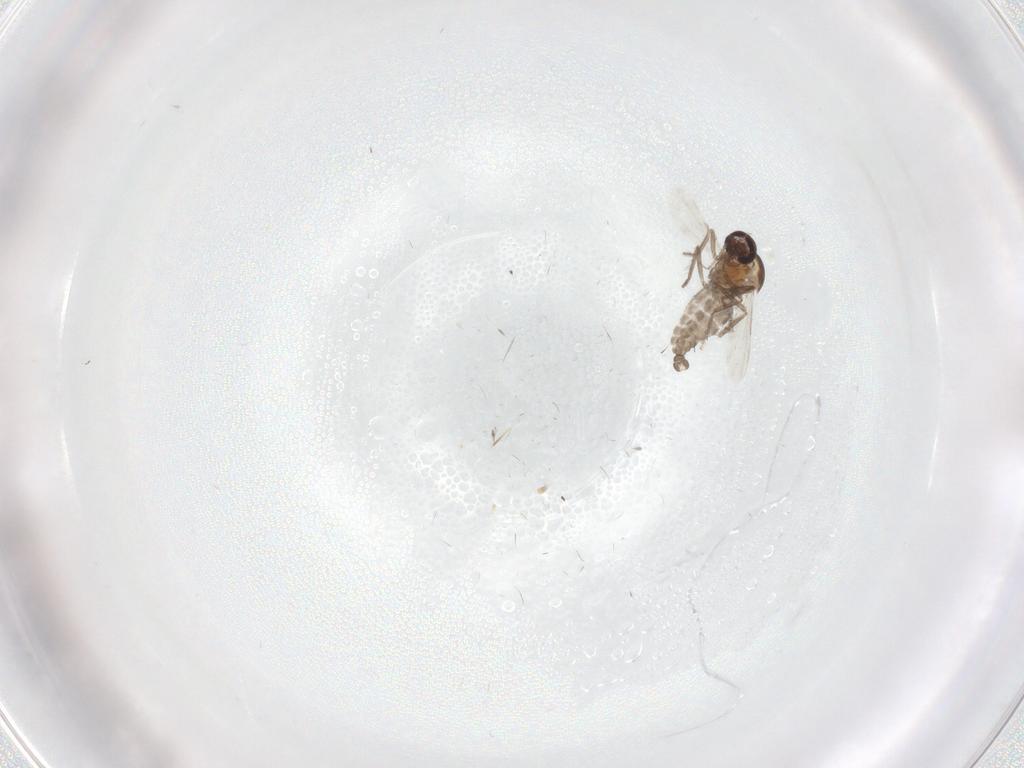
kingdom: Animalia
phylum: Arthropoda
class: Insecta
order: Diptera
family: Ceratopogonidae
